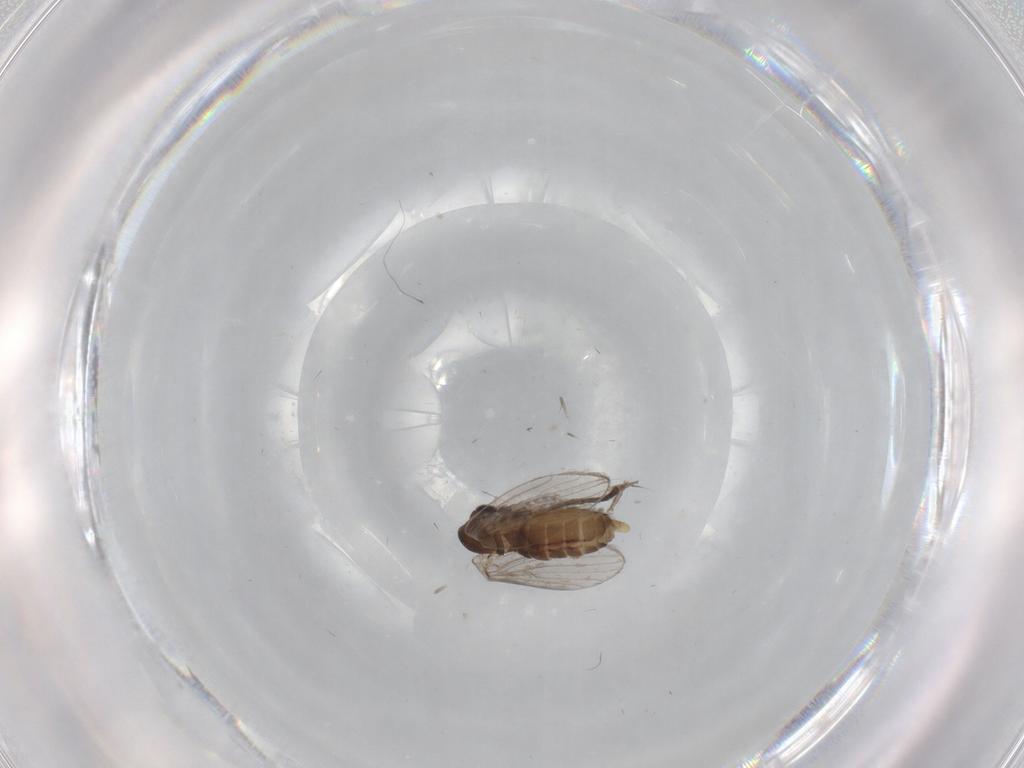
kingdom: Animalia
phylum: Arthropoda
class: Insecta
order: Diptera
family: Psychodidae
